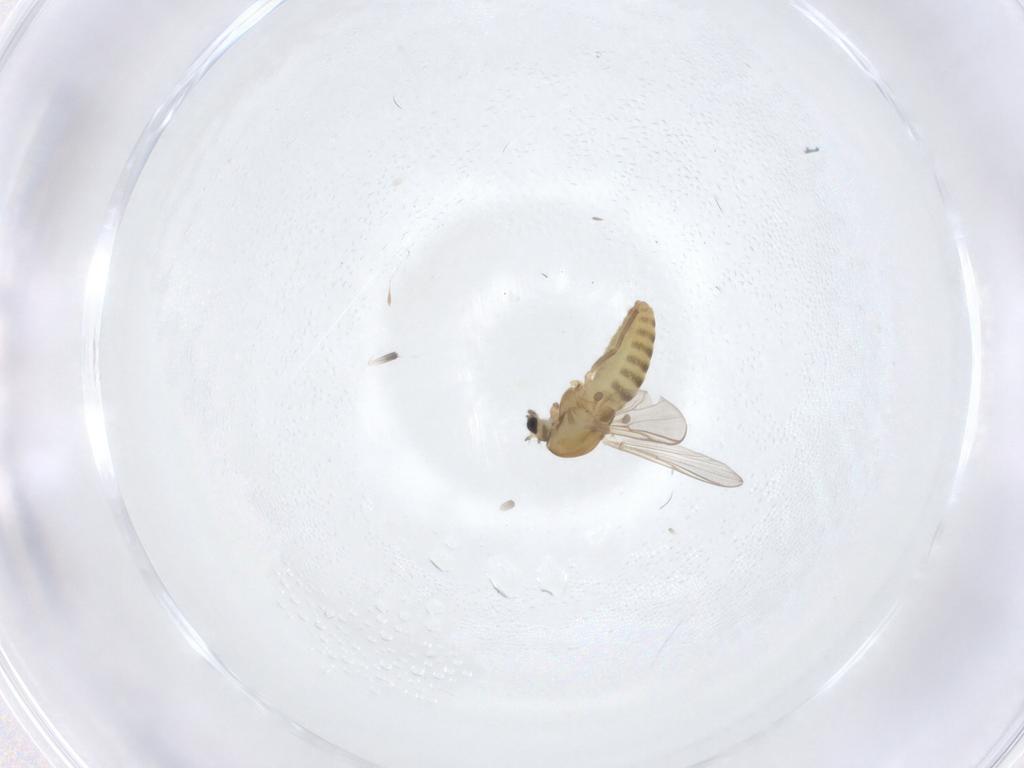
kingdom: Animalia
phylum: Arthropoda
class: Insecta
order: Diptera
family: Chironomidae
